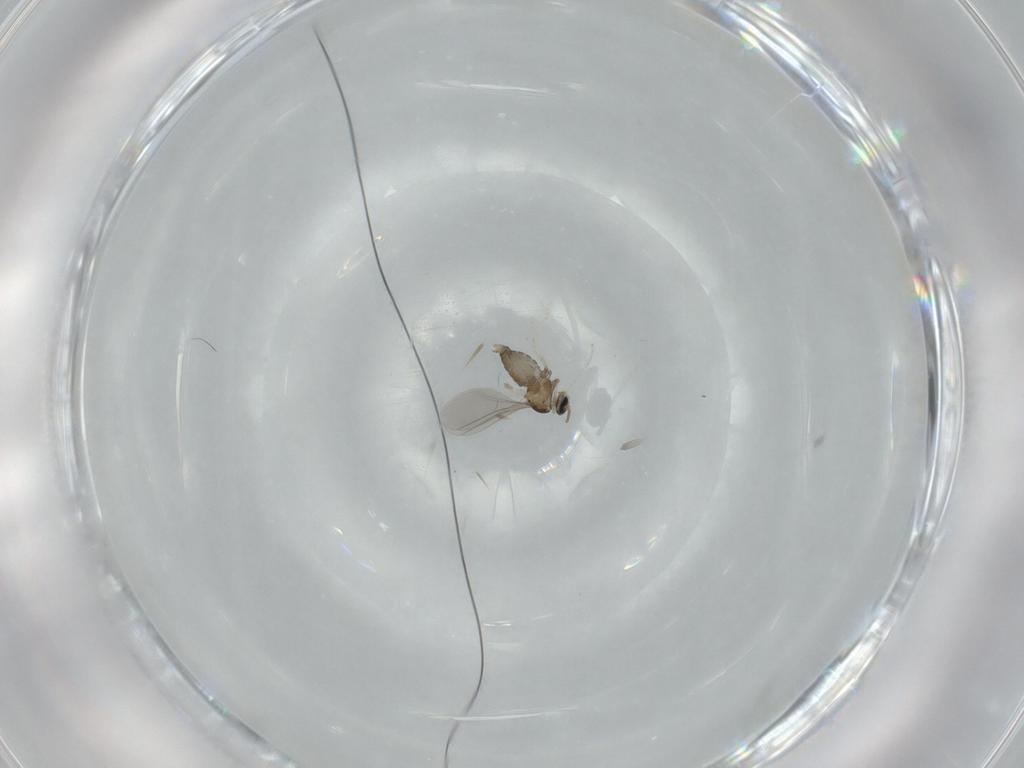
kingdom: Animalia
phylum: Arthropoda
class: Insecta
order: Diptera
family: Cecidomyiidae
